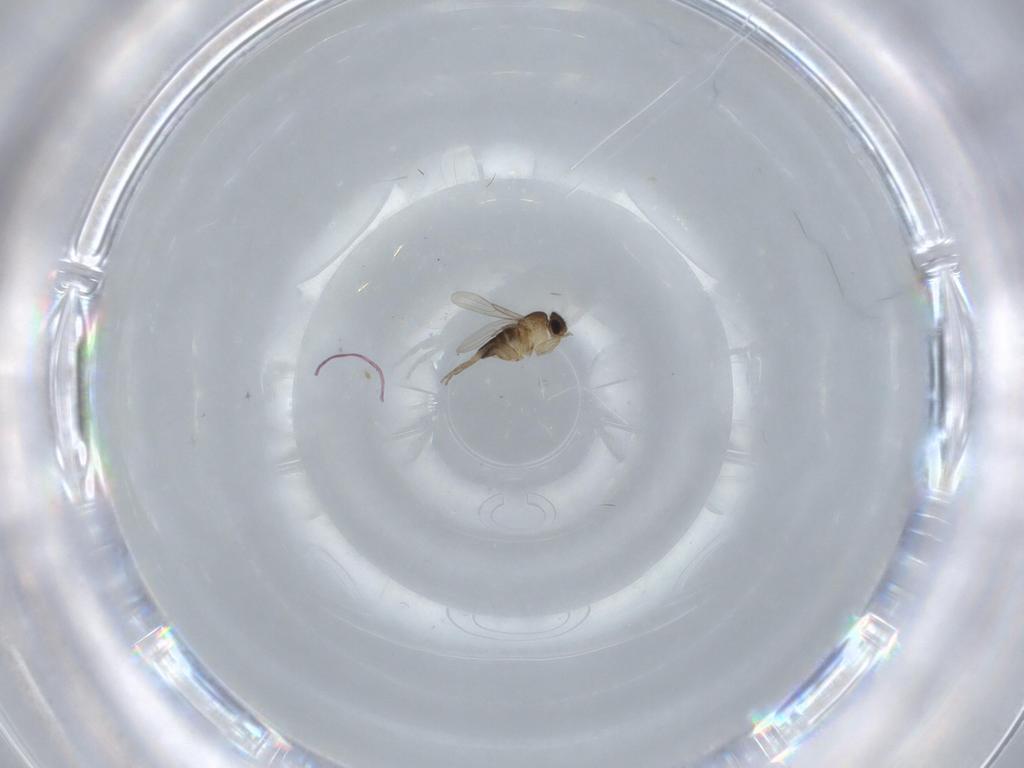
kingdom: Animalia
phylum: Arthropoda
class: Insecta
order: Diptera
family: Phoridae
